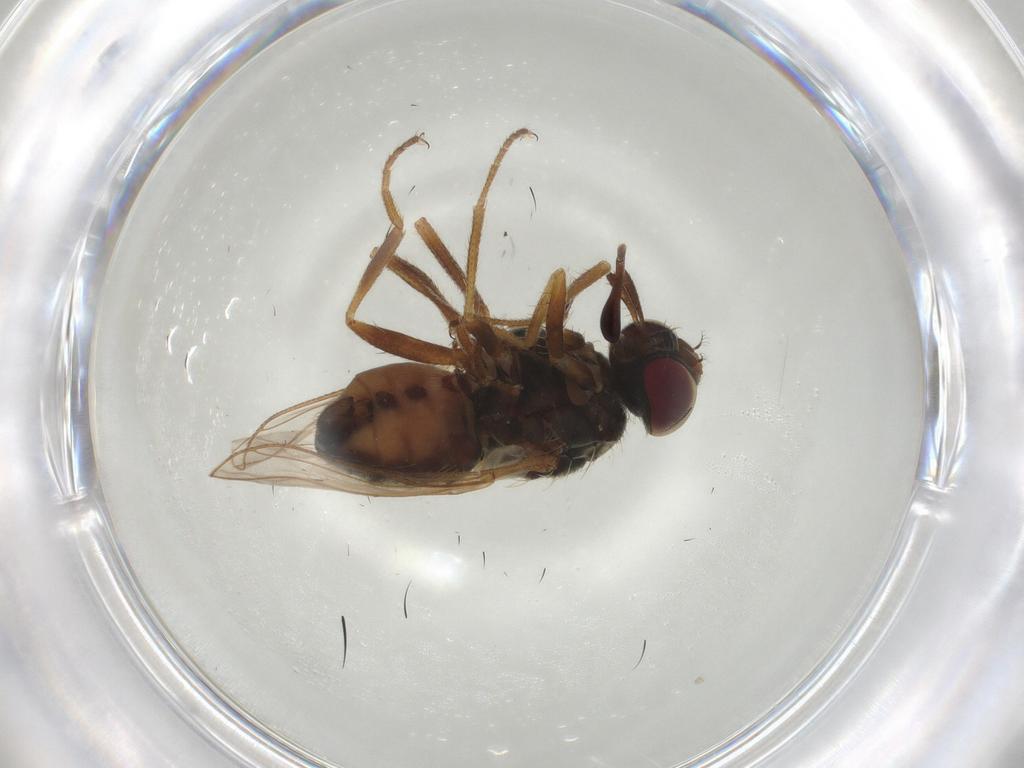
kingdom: Animalia
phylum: Arthropoda
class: Insecta
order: Diptera
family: Muscidae
